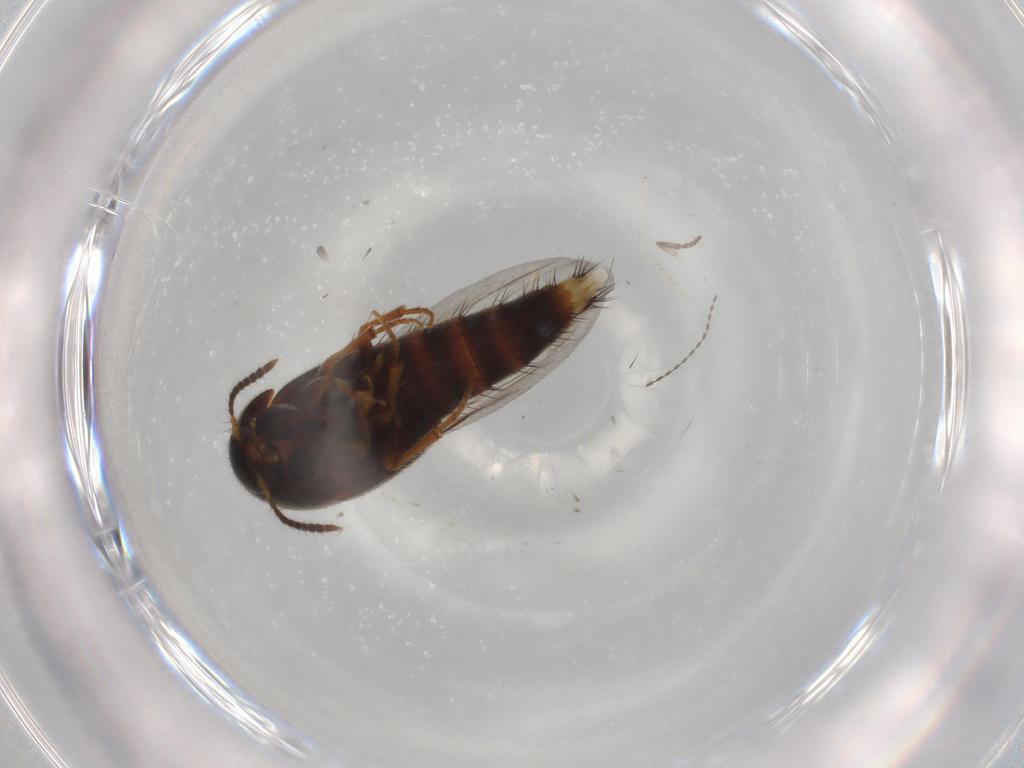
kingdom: Animalia
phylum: Arthropoda
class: Insecta
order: Coleoptera
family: Staphylinidae
